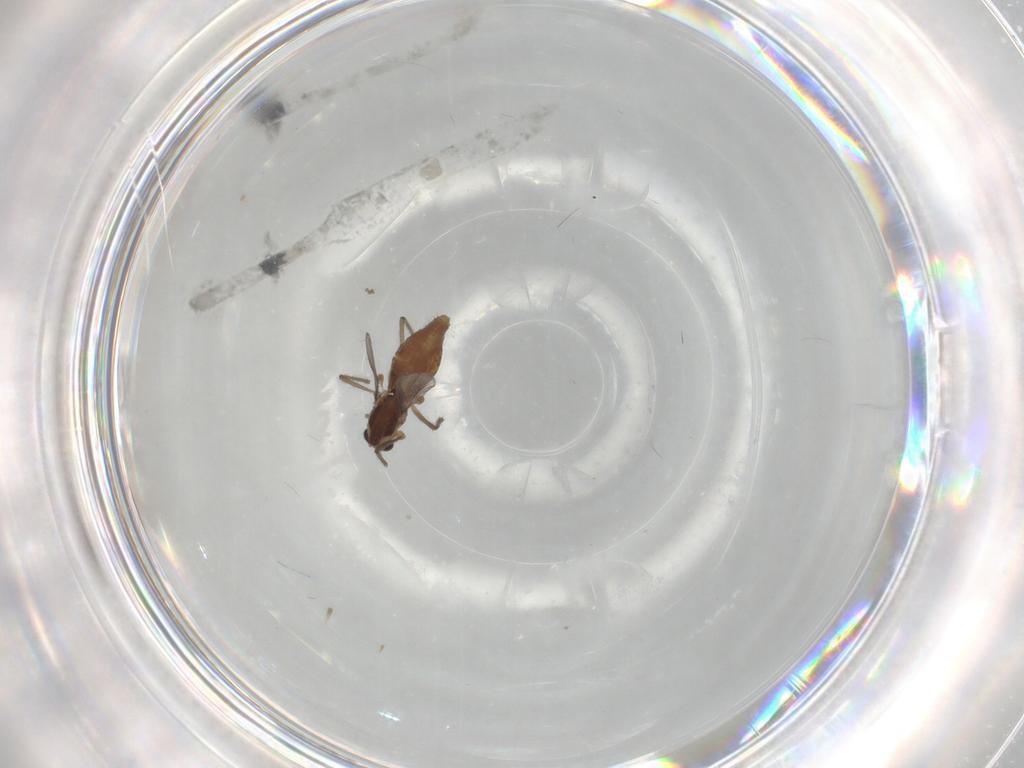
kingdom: Animalia
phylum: Arthropoda
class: Insecta
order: Diptera
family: Chironomidae
